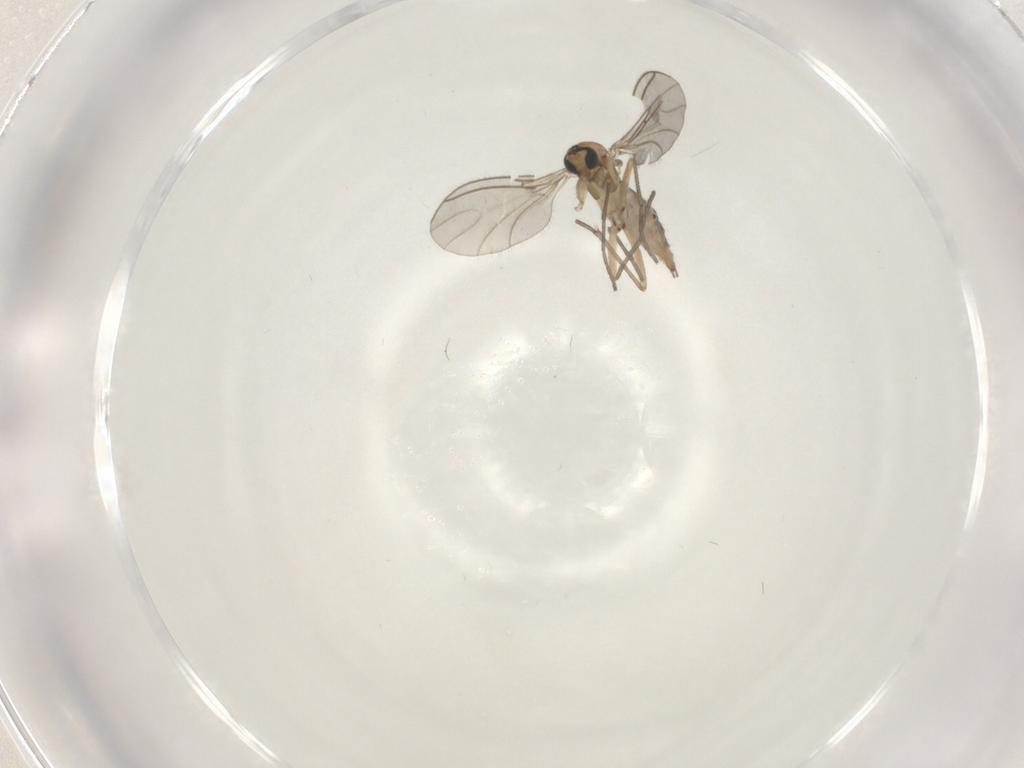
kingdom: Animalia
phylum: Arthropoda
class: Insecta
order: Diptera
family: Sciaridae
